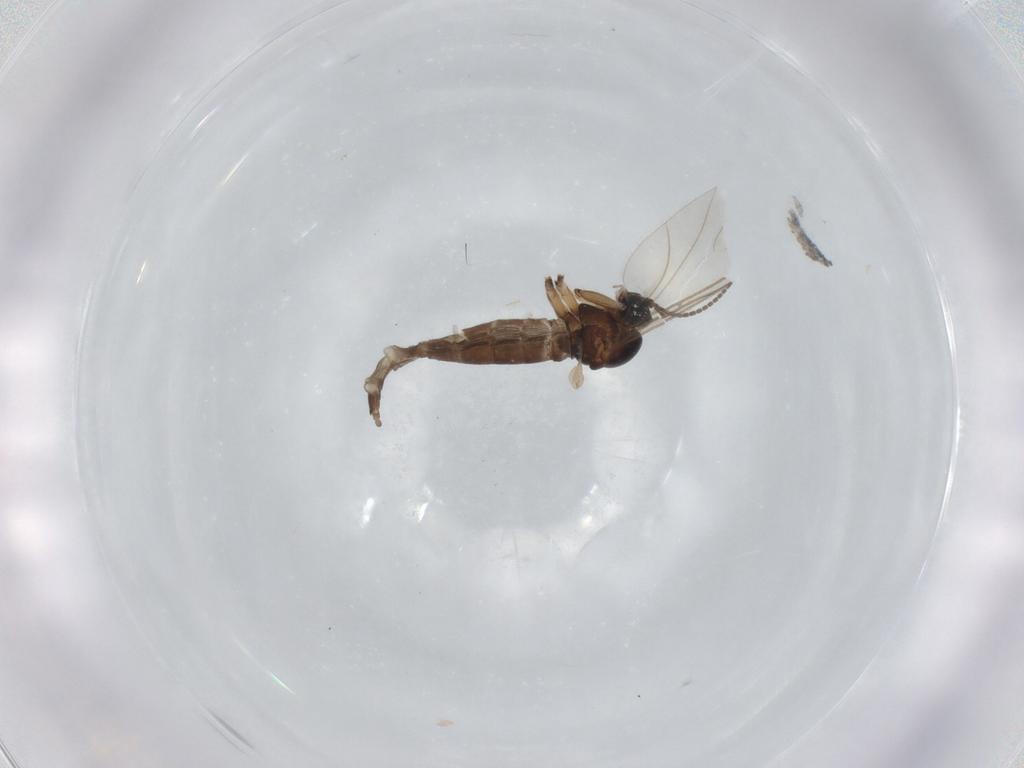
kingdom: Animalia
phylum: Arthropoda
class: Insecta
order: Diptera
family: Sciaridae
